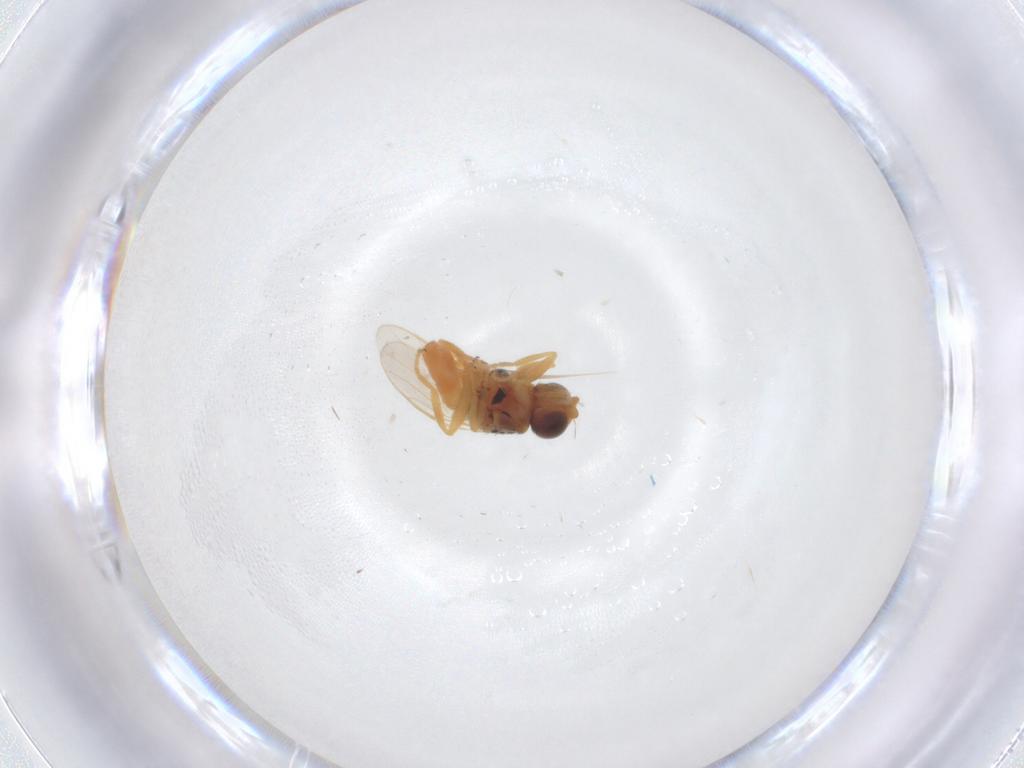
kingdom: Animalia
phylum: Arthropoda
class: Insecta
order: Diptera
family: Chloropidae
